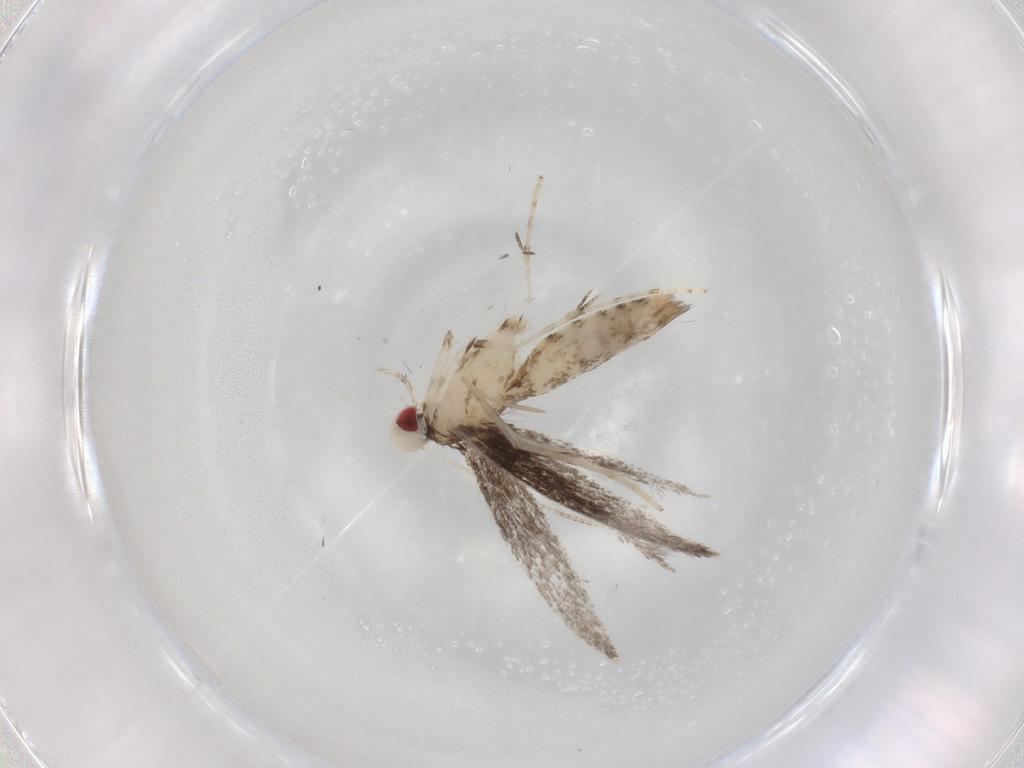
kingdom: Animalia
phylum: Arthropoda
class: Insecta
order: Lepidoptera
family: Gracillariidae
